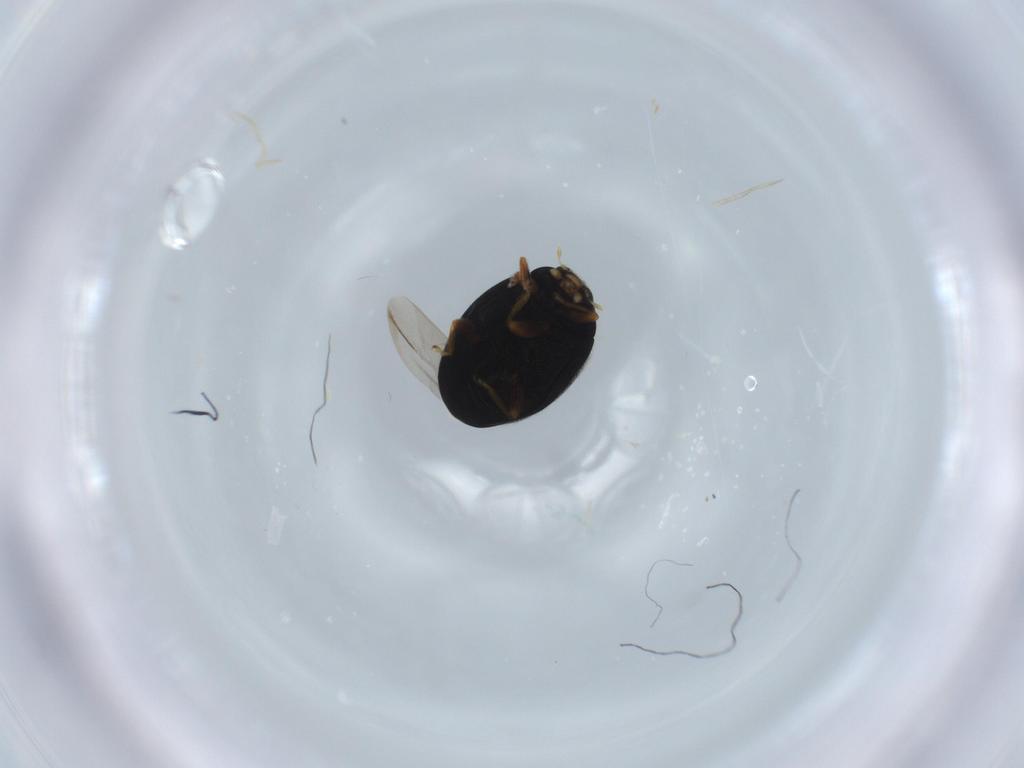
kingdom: Animalia
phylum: Arthropoda
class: Insecta
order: Coleoptera
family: Coccinellidae
